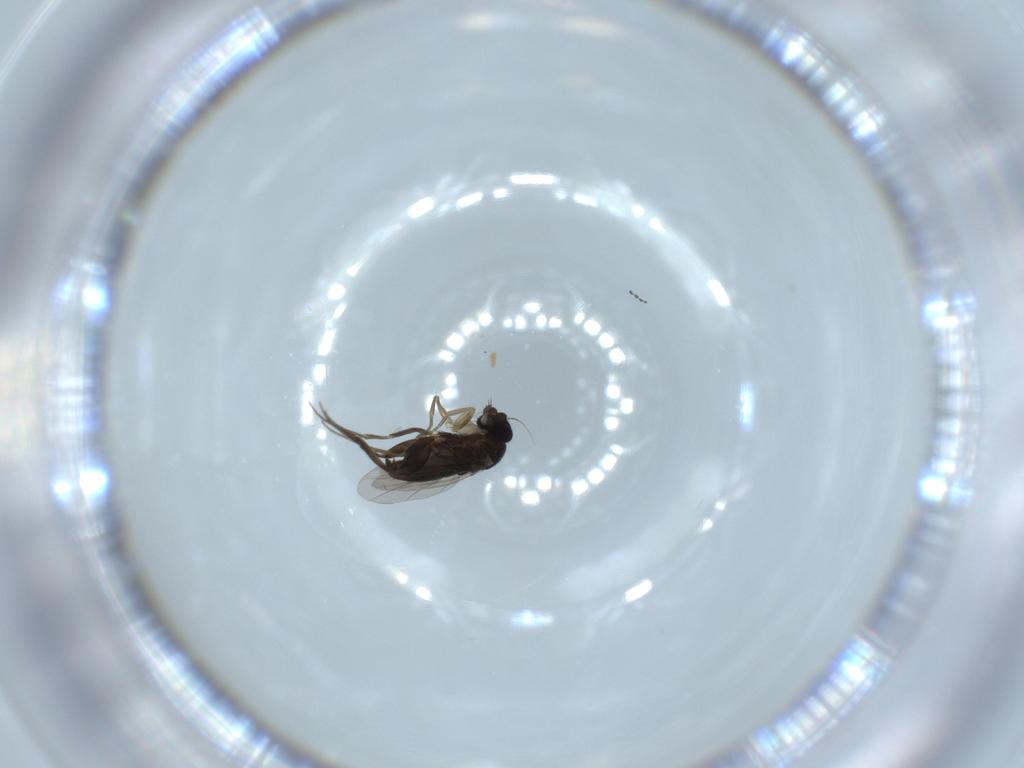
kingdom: Animalia
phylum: Arthropoda
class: Insecta
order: Diptera
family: Phoridae
